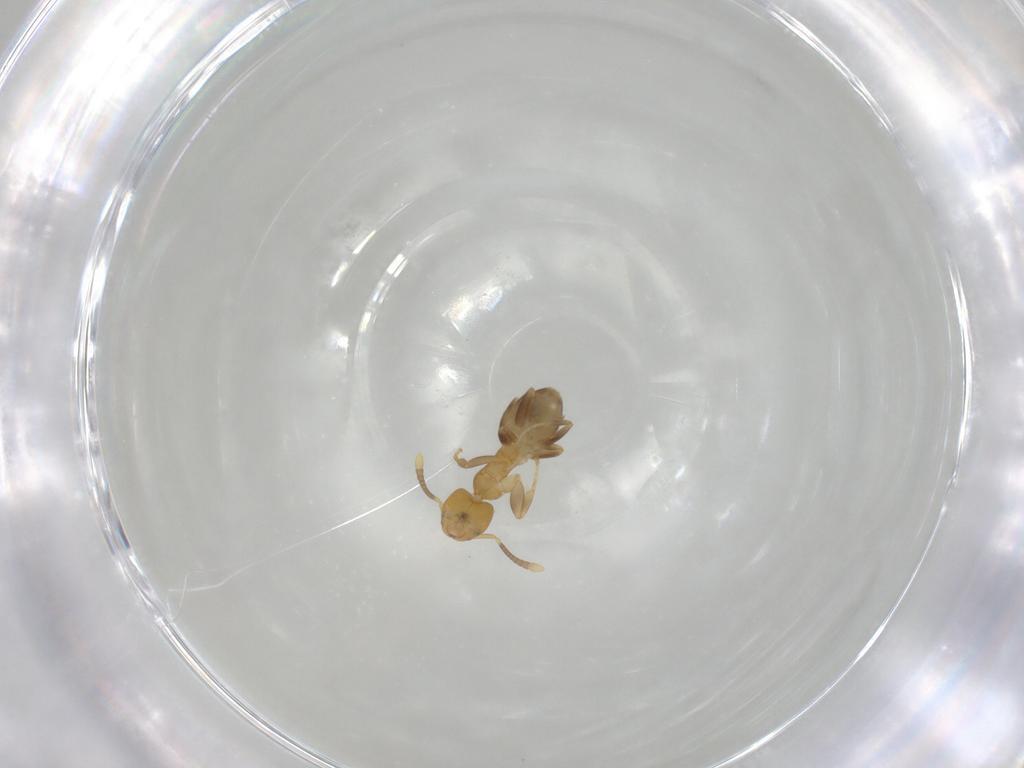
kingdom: Animalia
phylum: Arthropoda
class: Insecta
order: Hymenoptera
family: Formicidae
